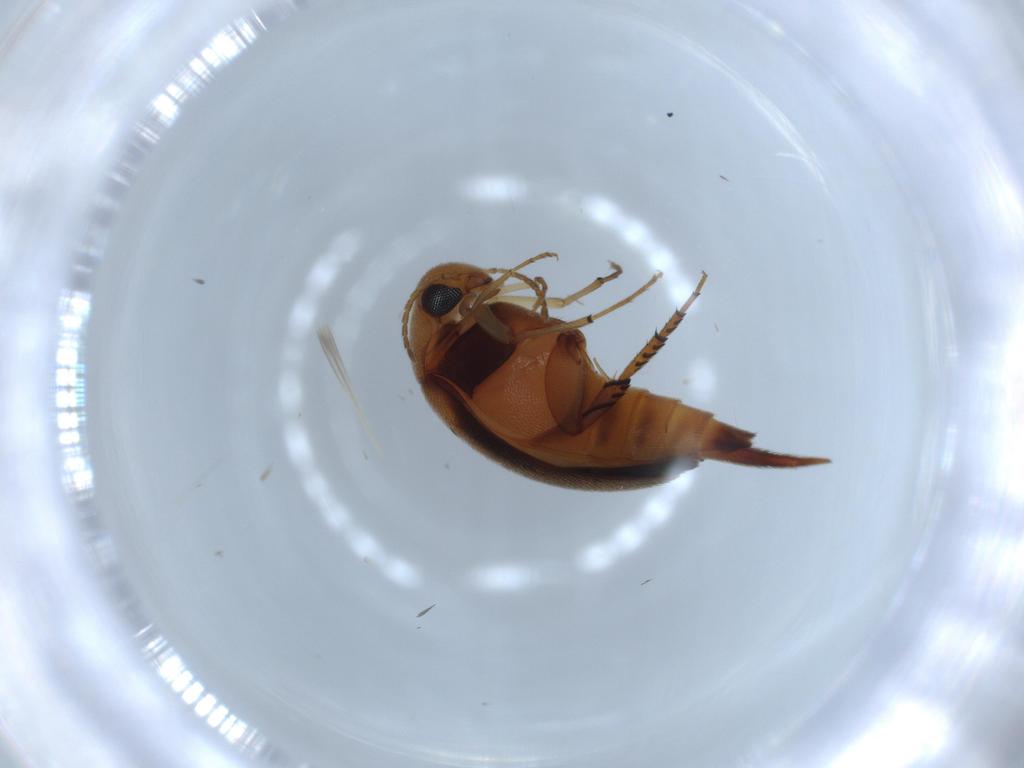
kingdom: Animalia
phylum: Arthropoda
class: Insecta
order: Coleoptera
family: Mordellidae
